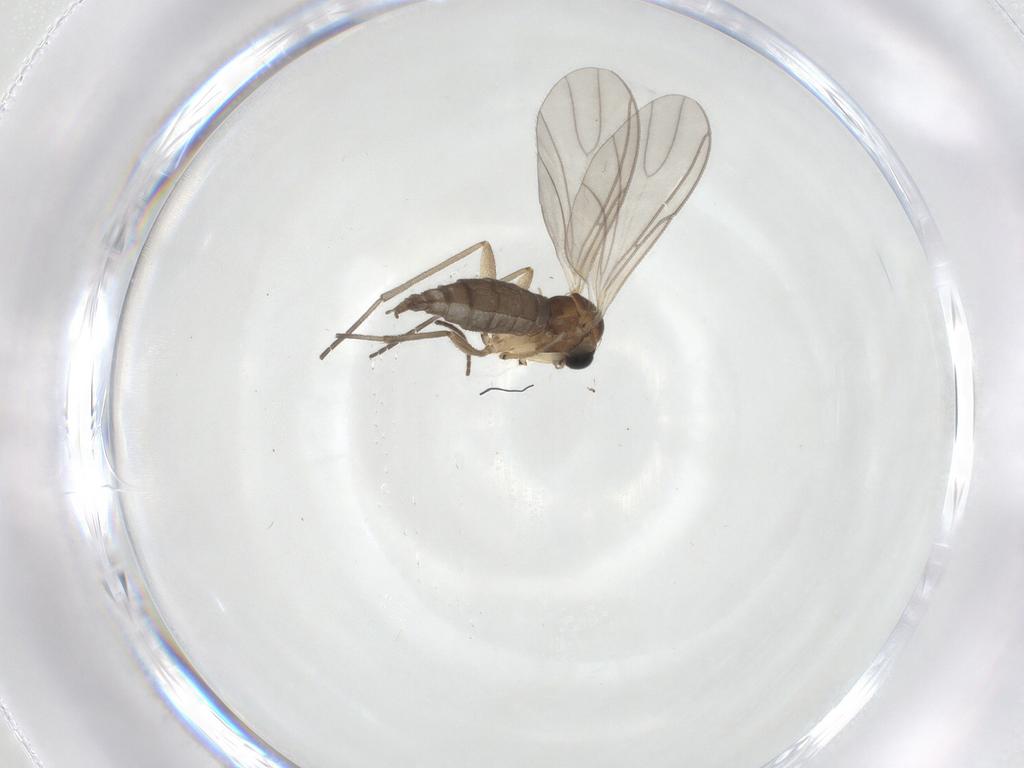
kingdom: Animalia
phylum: Arthropoda
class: Insecta
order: Diptera
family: Sciaridae
